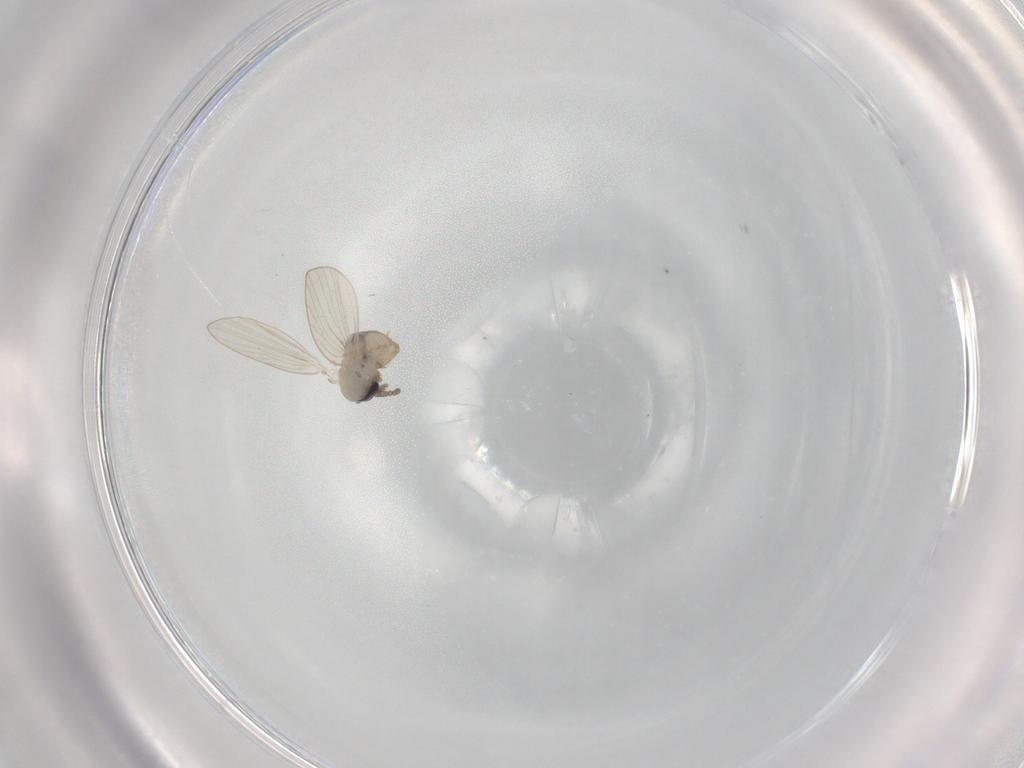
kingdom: Animalia
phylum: Arthropoda
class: Insecta
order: Diptera
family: Psychodidae
